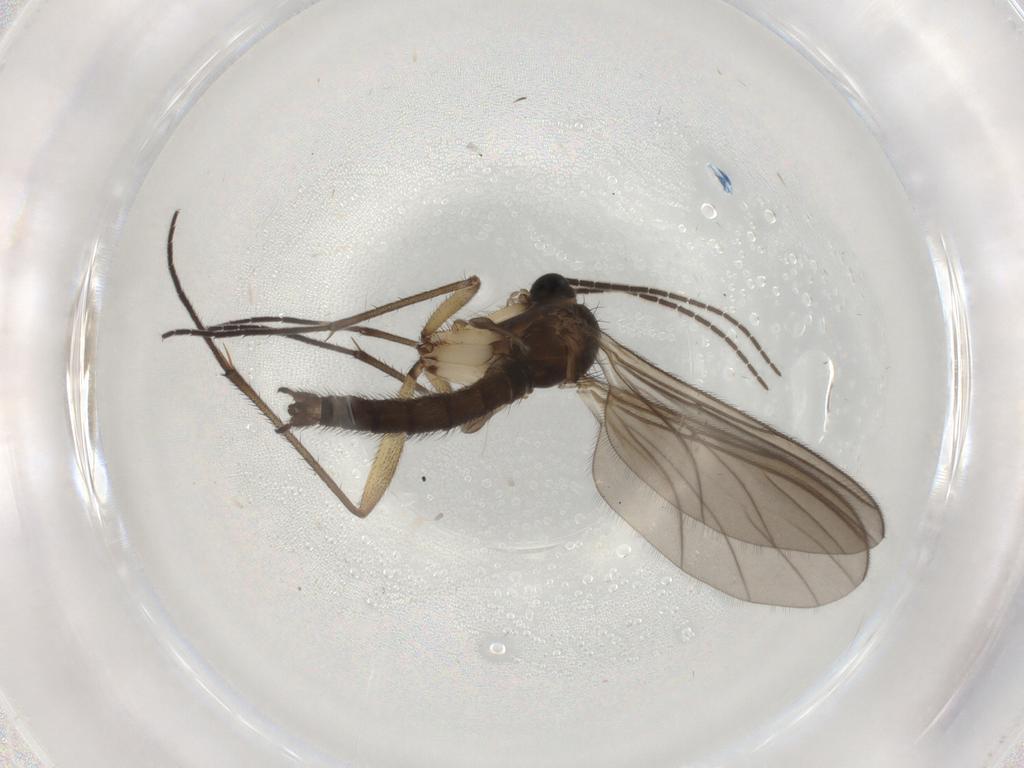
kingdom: Animalia
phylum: Arthropoda
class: Insecta
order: Diptera
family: Sciaridae
